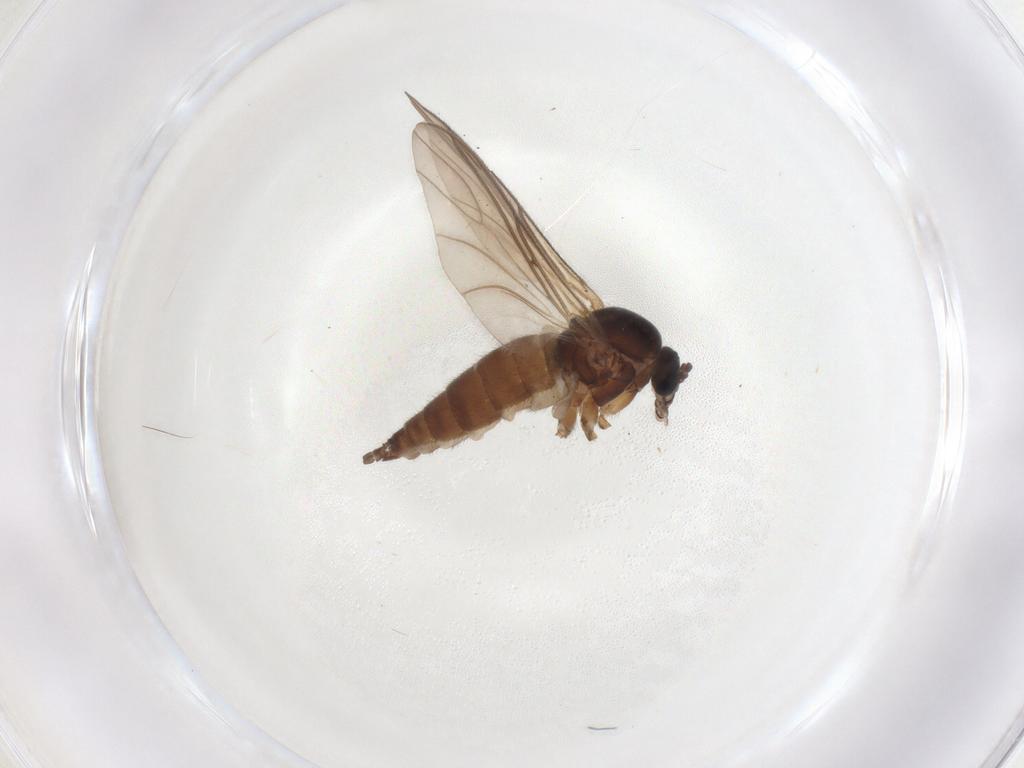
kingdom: Animalia
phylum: Arthropoda
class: Insecta
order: Diptera
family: Sciaridae
